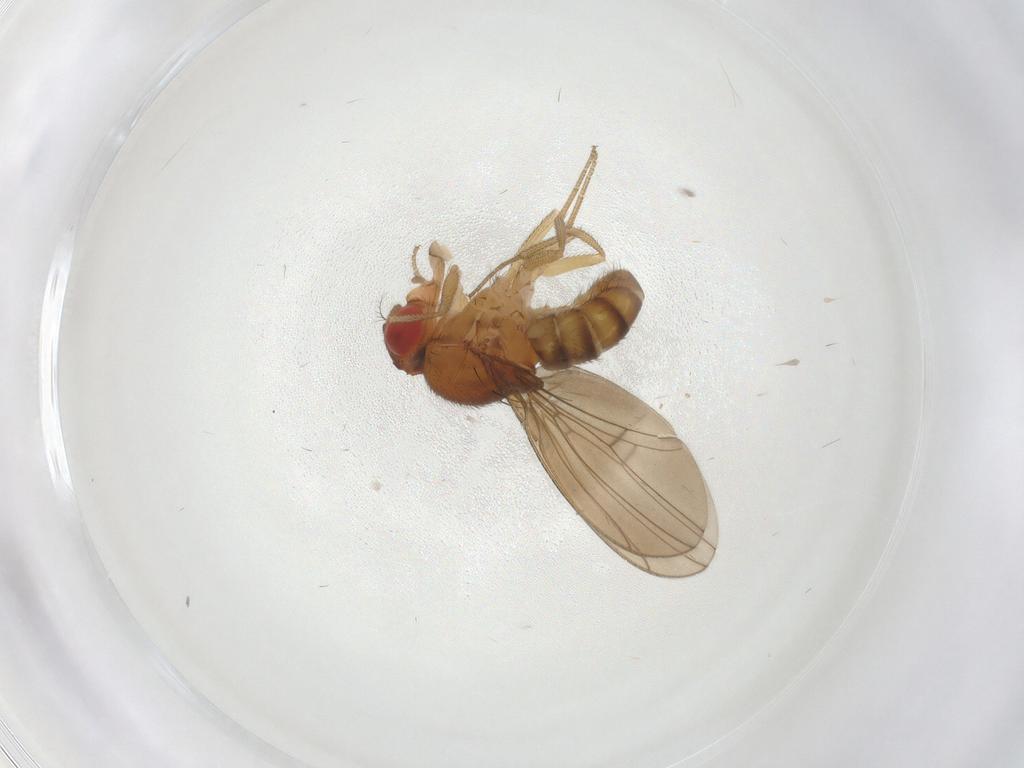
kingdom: Animalia
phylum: Arthropoda
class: Insecta
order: Diptera
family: Drosophilidae
